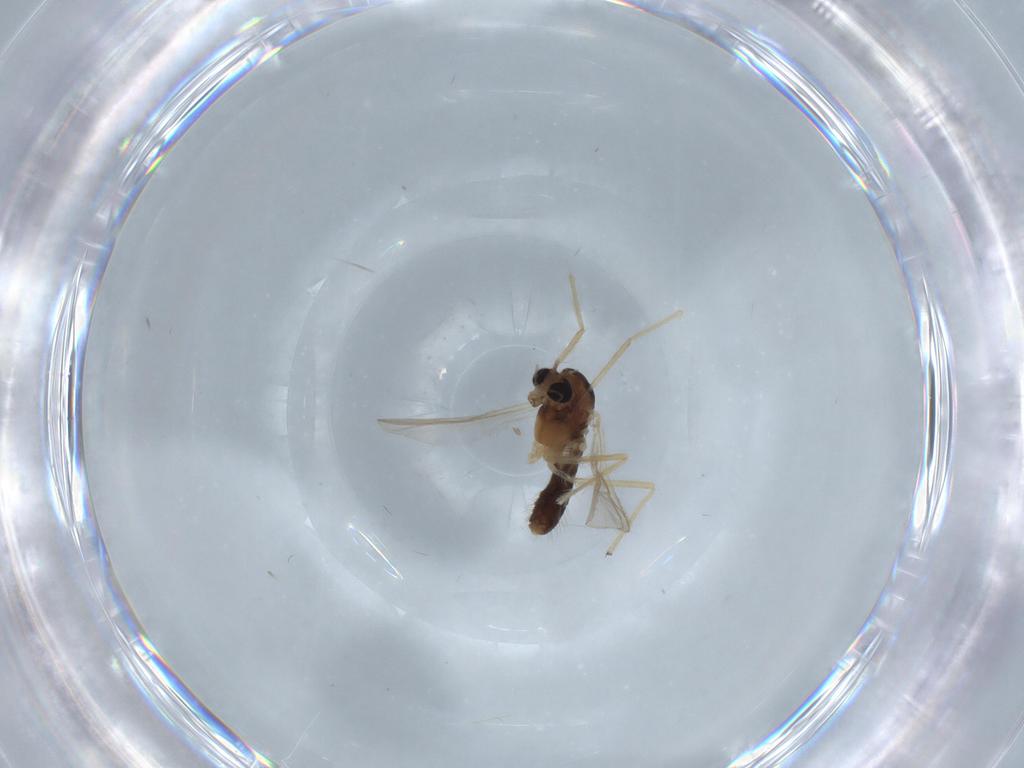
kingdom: Animalia
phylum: Arthropoda
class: Insecta
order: Diptera
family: Chironomidae
